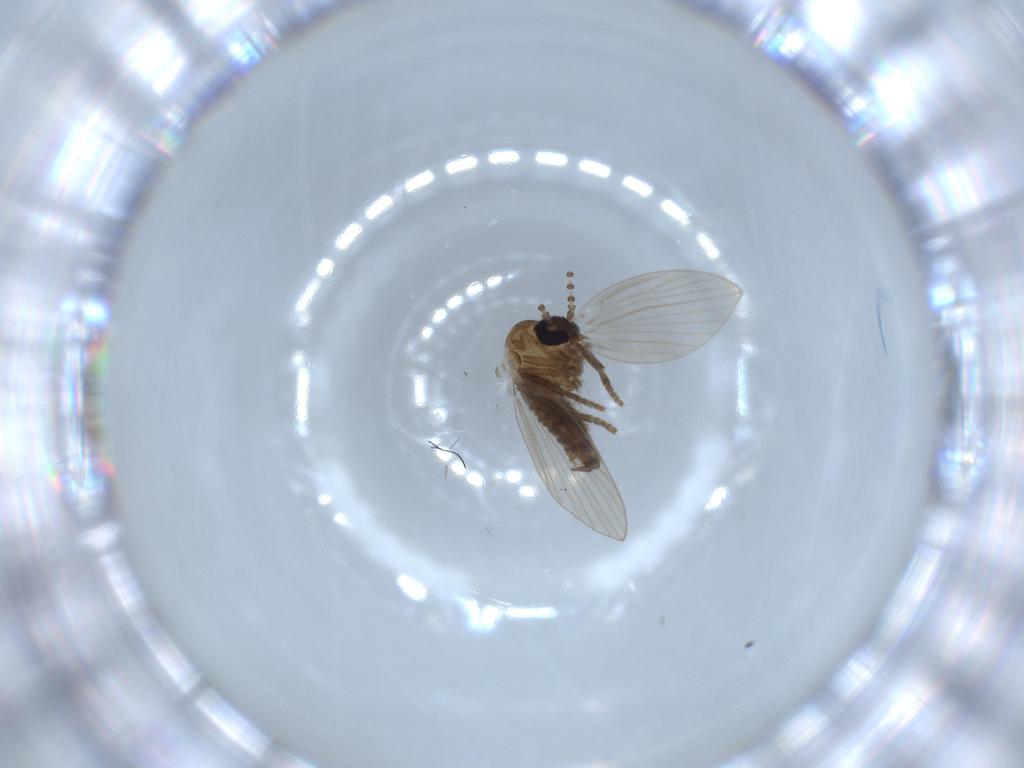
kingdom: Animalia
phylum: Arthropoda
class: Insecta
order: Diptera
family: Psychodidae
